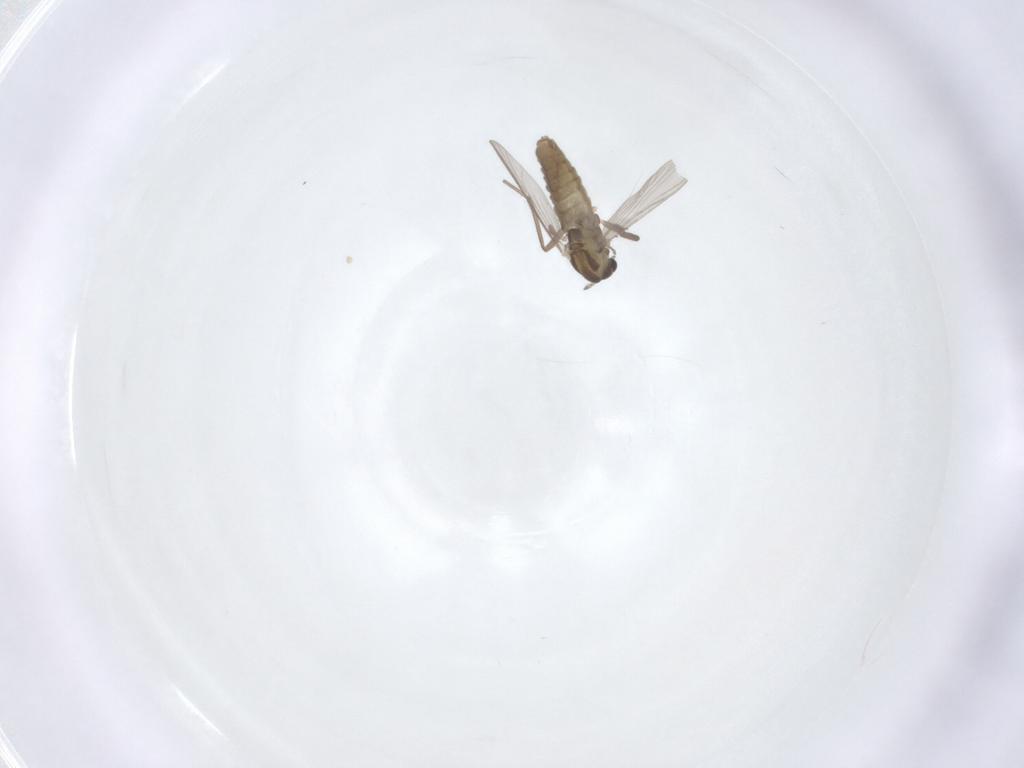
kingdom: Animalia
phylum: Arthropoda
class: Insecta
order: Diptera
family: Chironomidae
